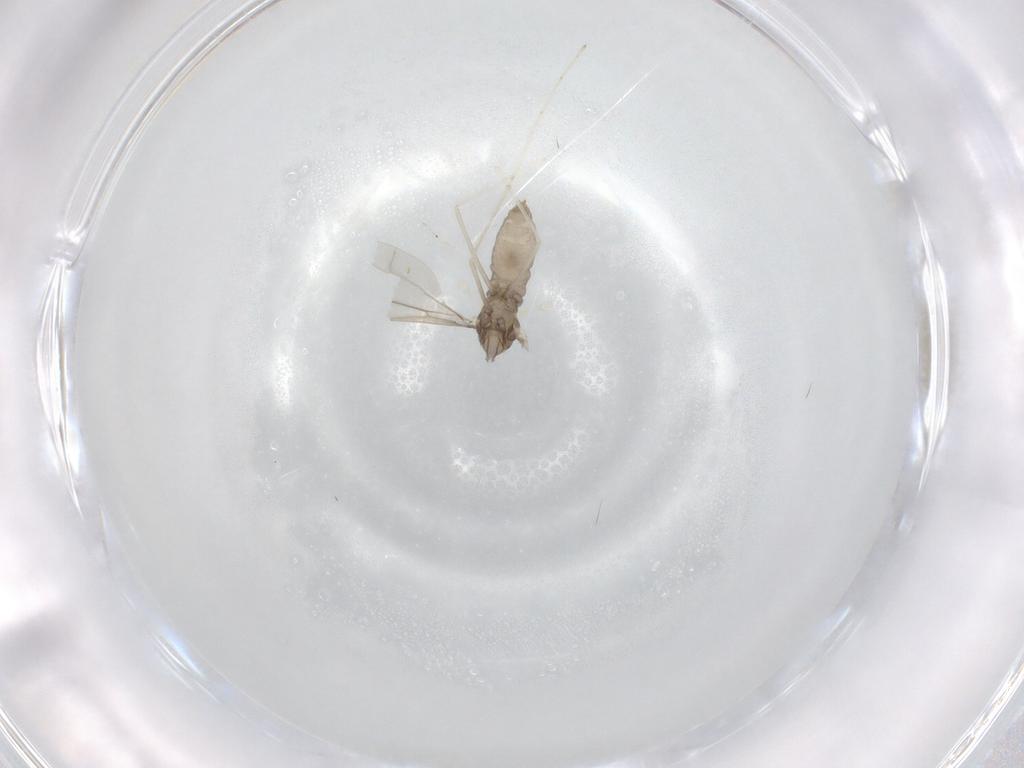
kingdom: Animalia
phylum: Arthropoda
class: Insecta
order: Diptera
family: Cecidomyiidae
